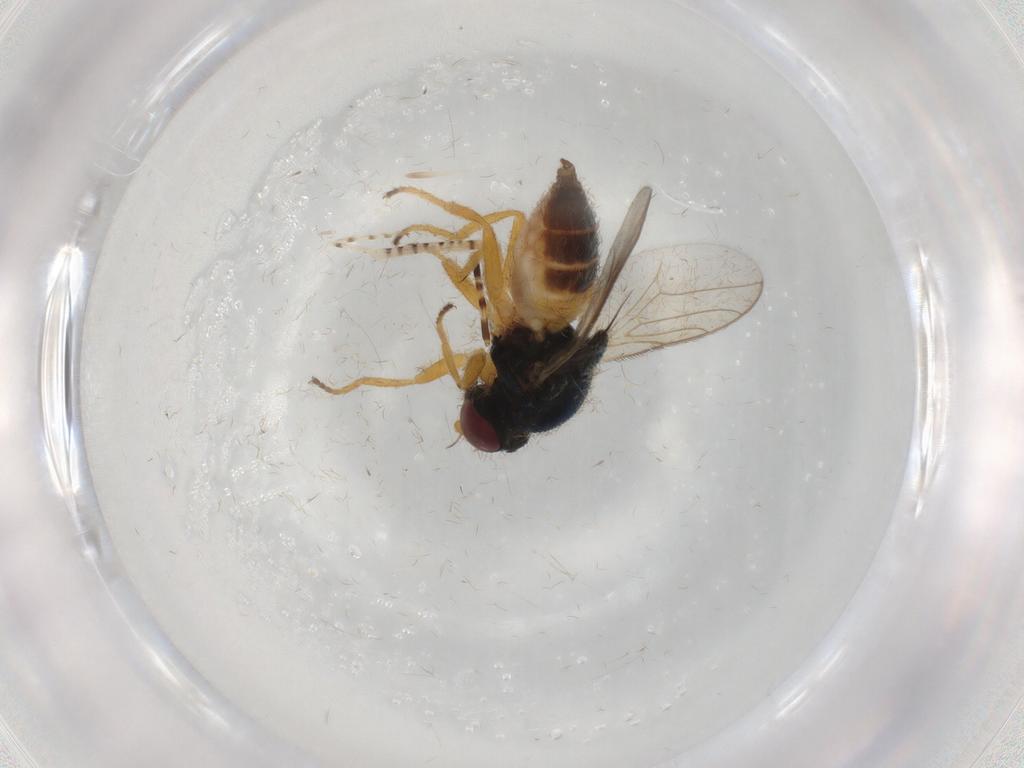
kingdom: Animalia
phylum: Arthropoda
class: Insecta
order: Diptera
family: Chloropidae
